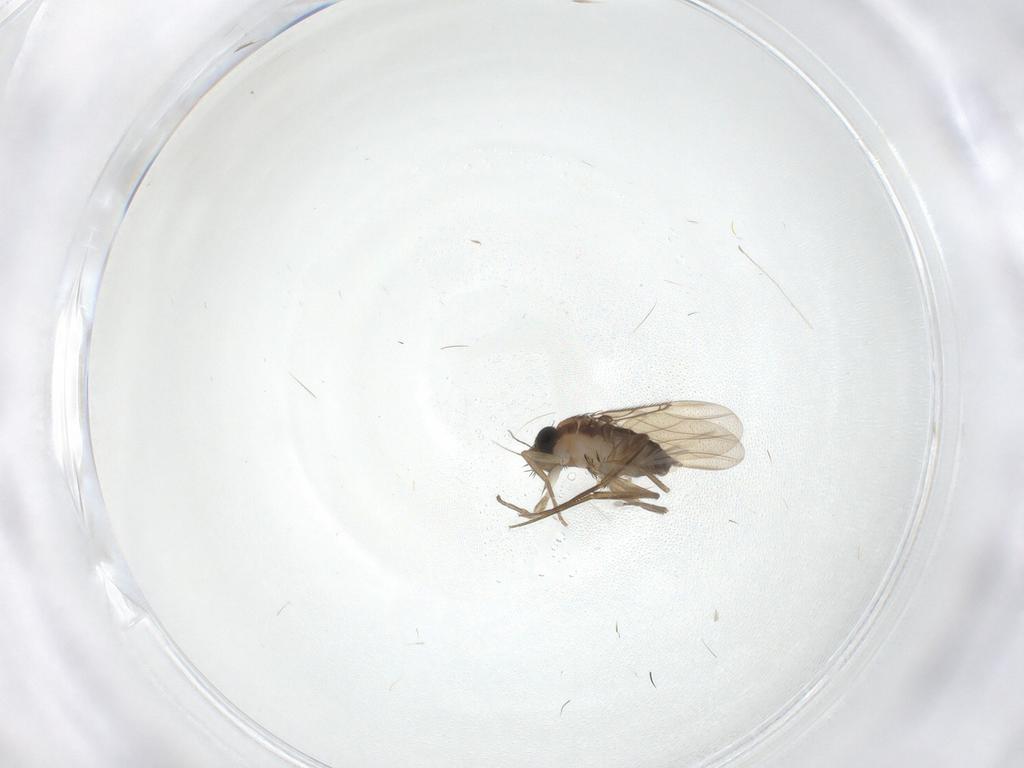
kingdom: Animalia
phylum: Arthropoda
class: Insecta
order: Diptera
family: Phoridae
